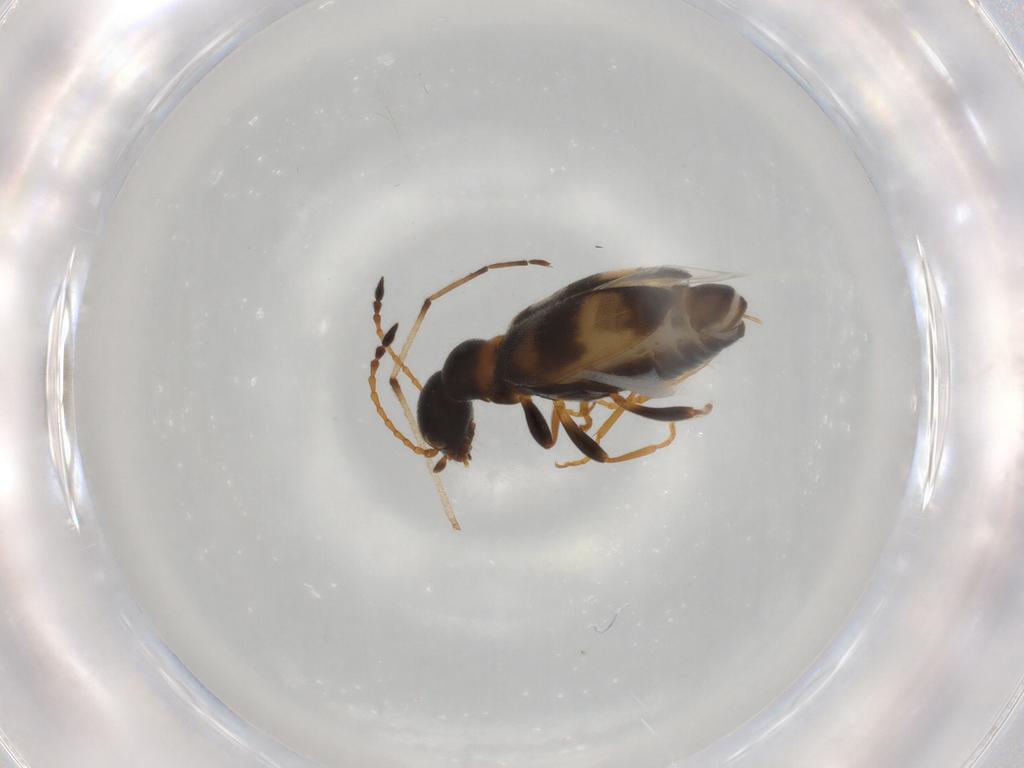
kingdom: Animalia
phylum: Arthropoda
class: Insecta
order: Coleoptera
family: Anthicidae
